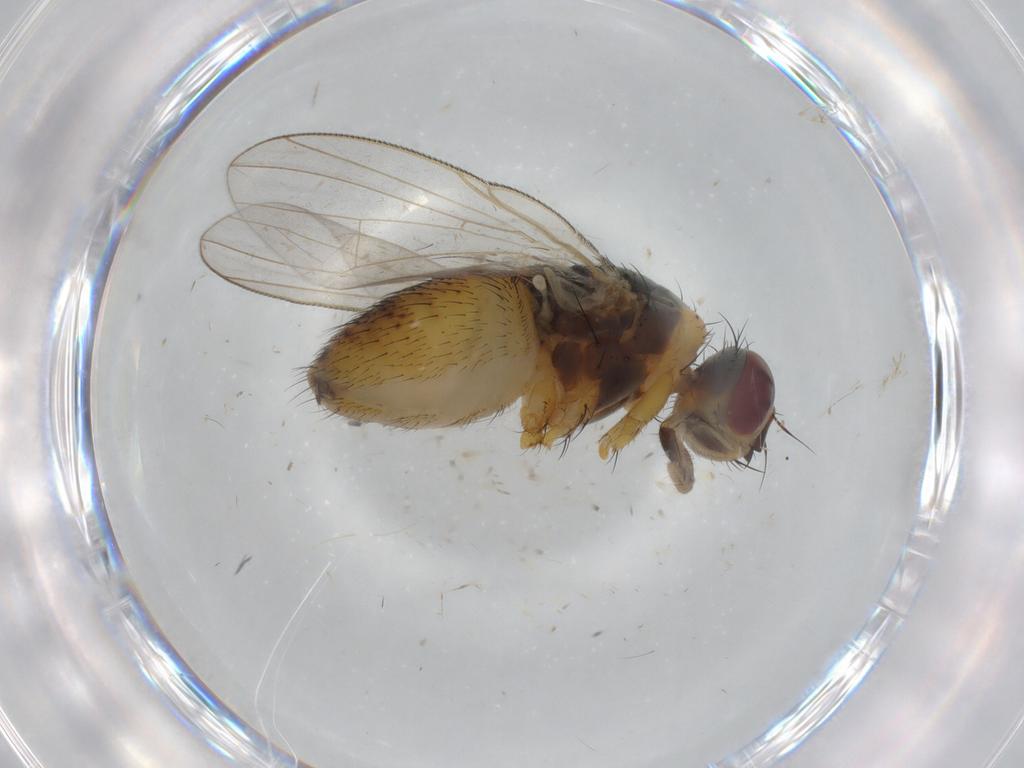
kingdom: Animalia
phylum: Arthropoda
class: Insecta
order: Diptera
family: Muscidae
